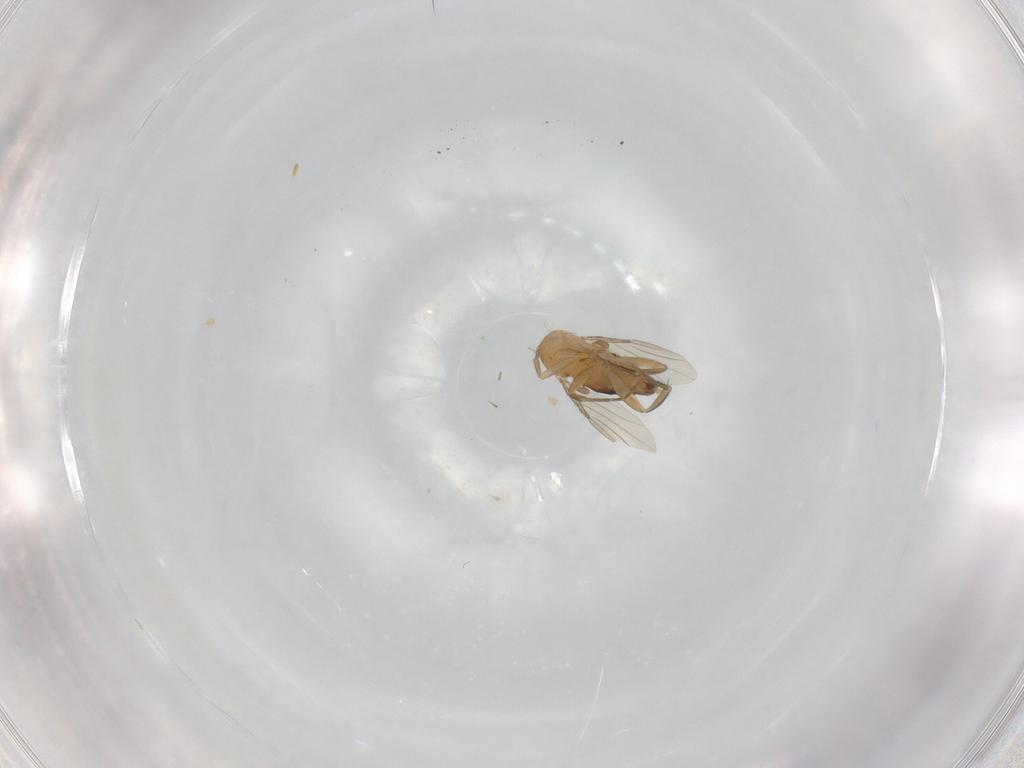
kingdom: Animalia
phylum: Arthropoda
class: Insecta
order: Diptera
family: Phoridae
